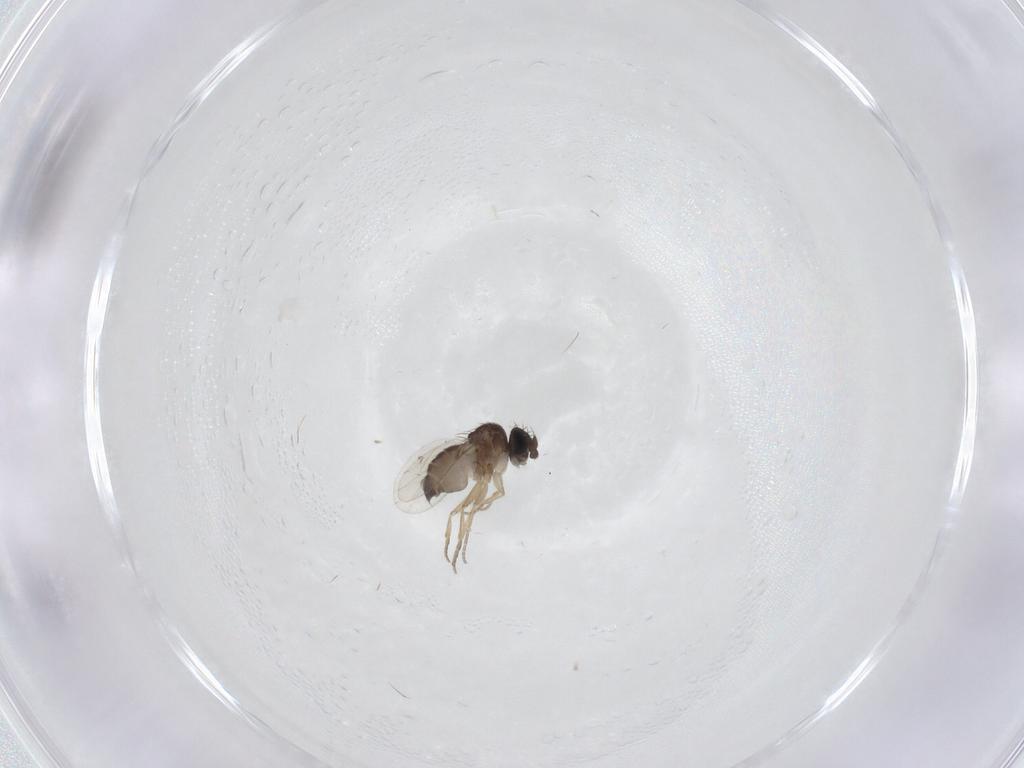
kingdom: Animalia
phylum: Arthropoda
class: Insecta
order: Diptera
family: Phoridae
